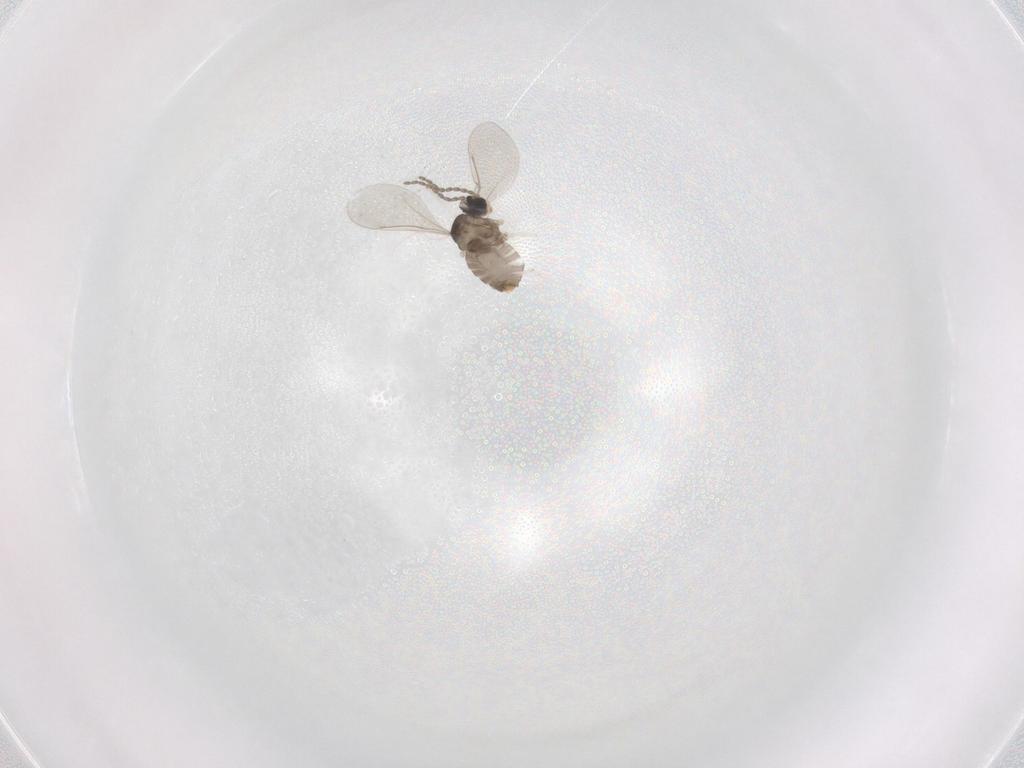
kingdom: Animalia
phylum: Arthropoda
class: Insecta
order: Diptera
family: Cecidomyiidae
